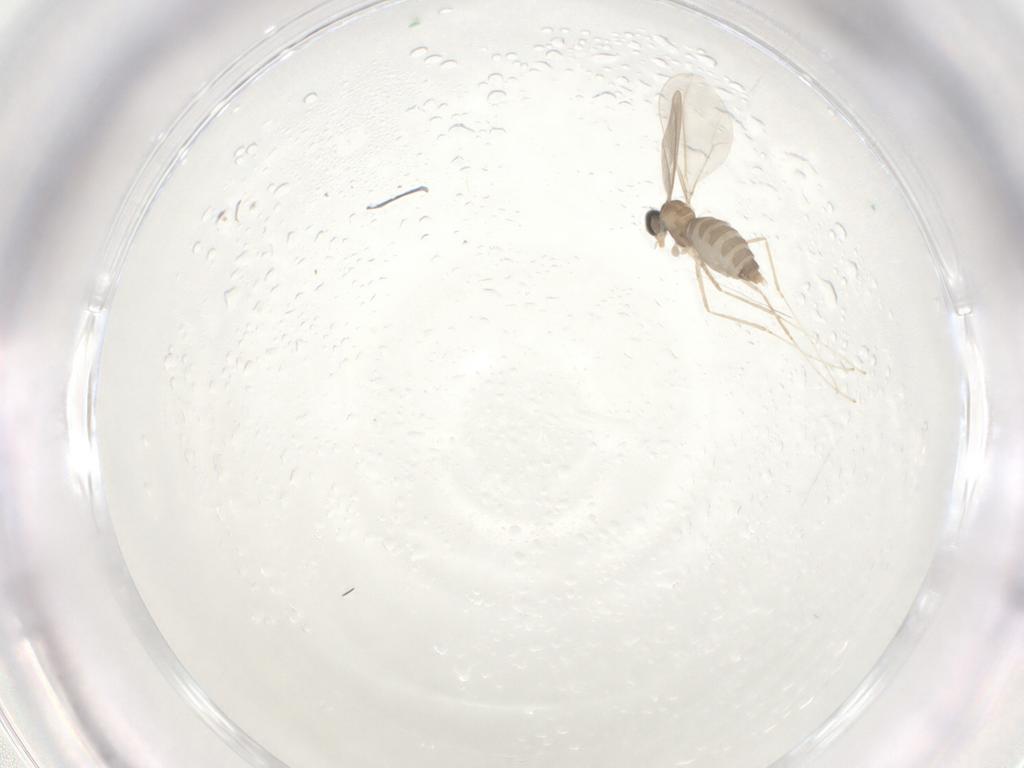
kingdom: Animalia
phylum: Arthropoda
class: Insecta
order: Diptera
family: Cecidomyiidae
